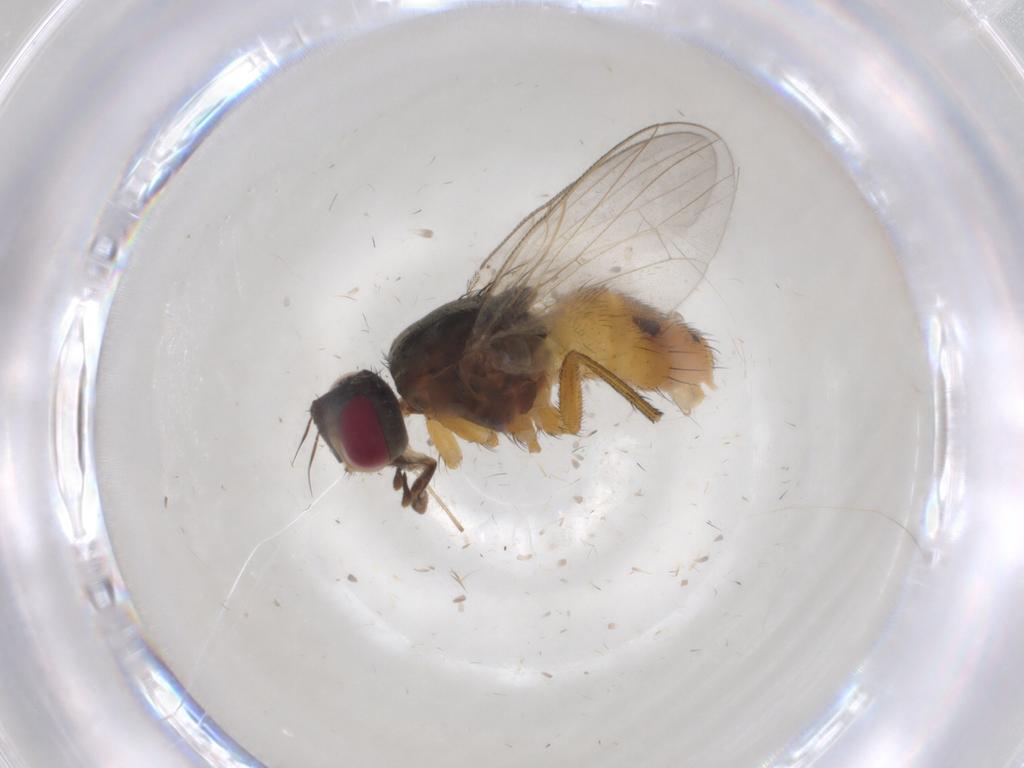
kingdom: Animalia
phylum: Arthropoda
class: Insecta
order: Diptera
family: Muscidae
